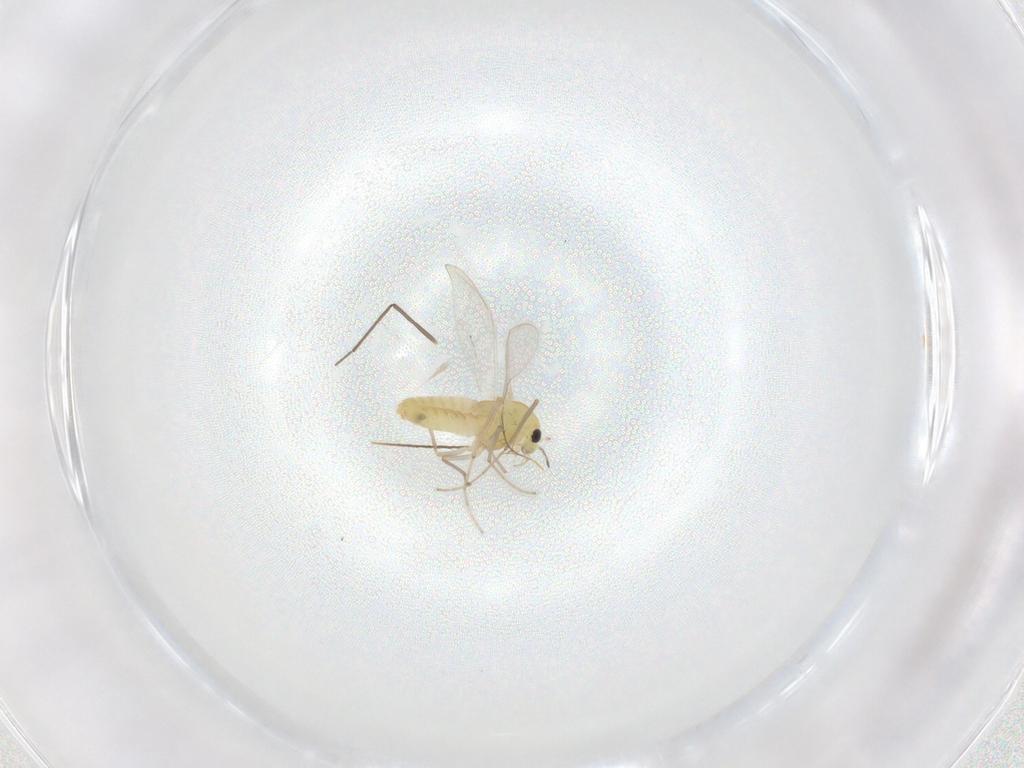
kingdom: Animalia
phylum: Arthropoda
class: Insecta
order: Diptera
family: Chironomidae
